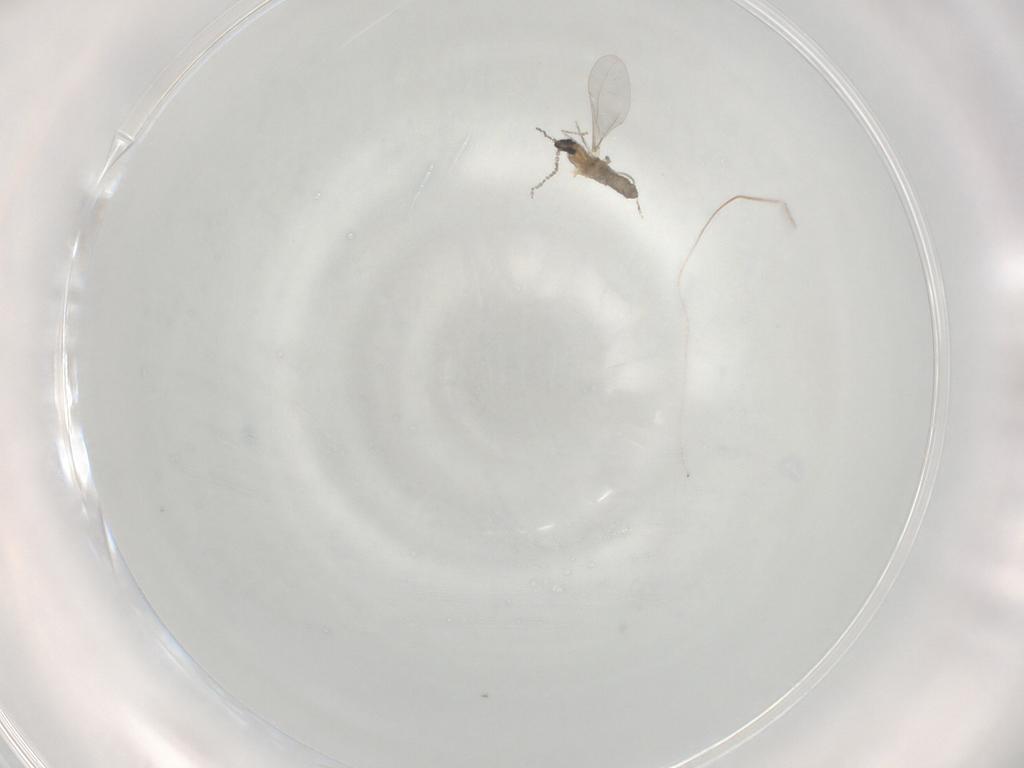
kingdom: Animalia
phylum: Arthropoda
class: Insecta
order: Diptera
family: Cecidomyiidae
